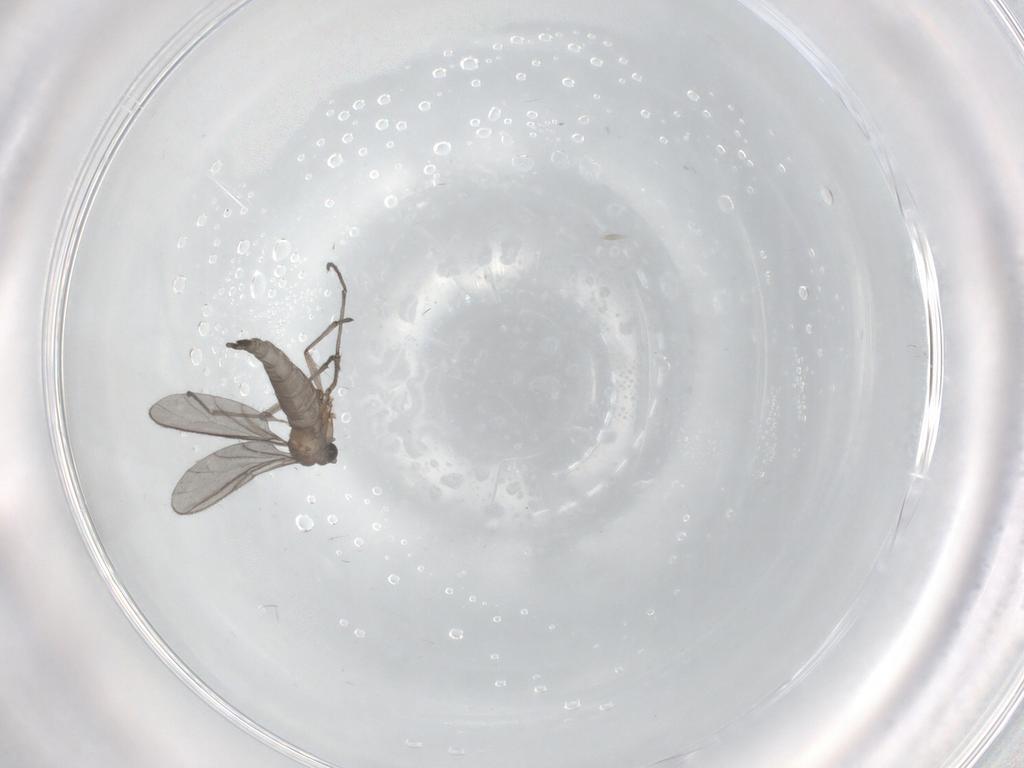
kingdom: Animalia
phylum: Arthropoda
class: Insecta
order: Diptera
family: Sciaridae
